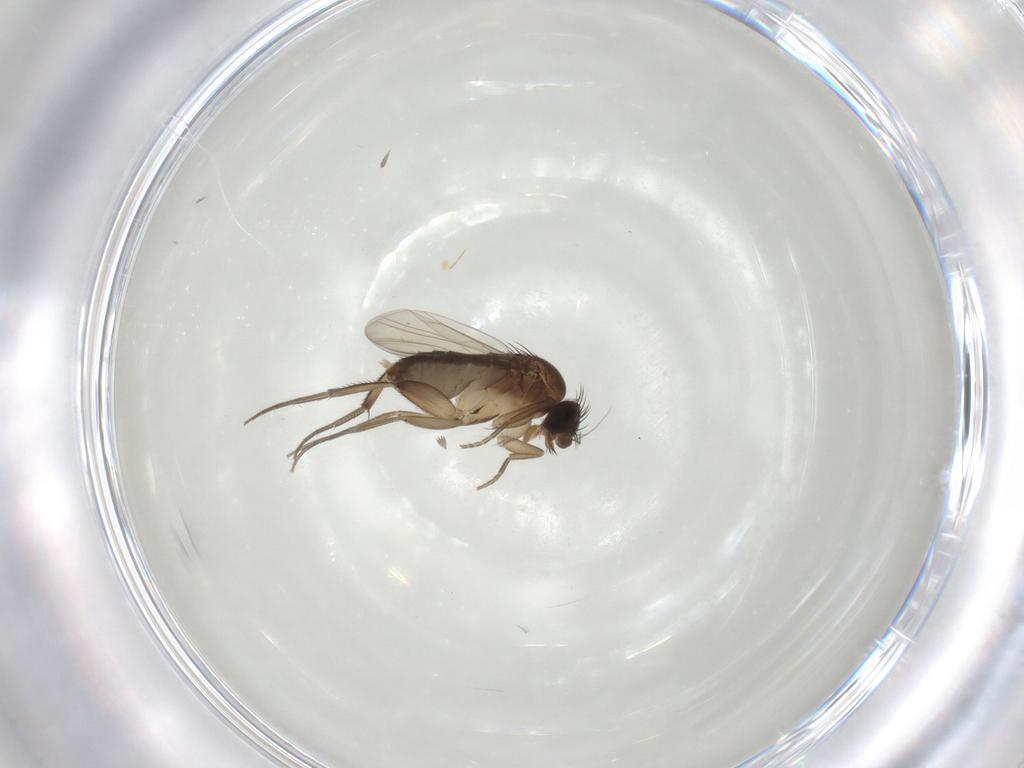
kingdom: Animalia
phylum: Arthropoda
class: Insecta
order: Diptera
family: Phoridae
